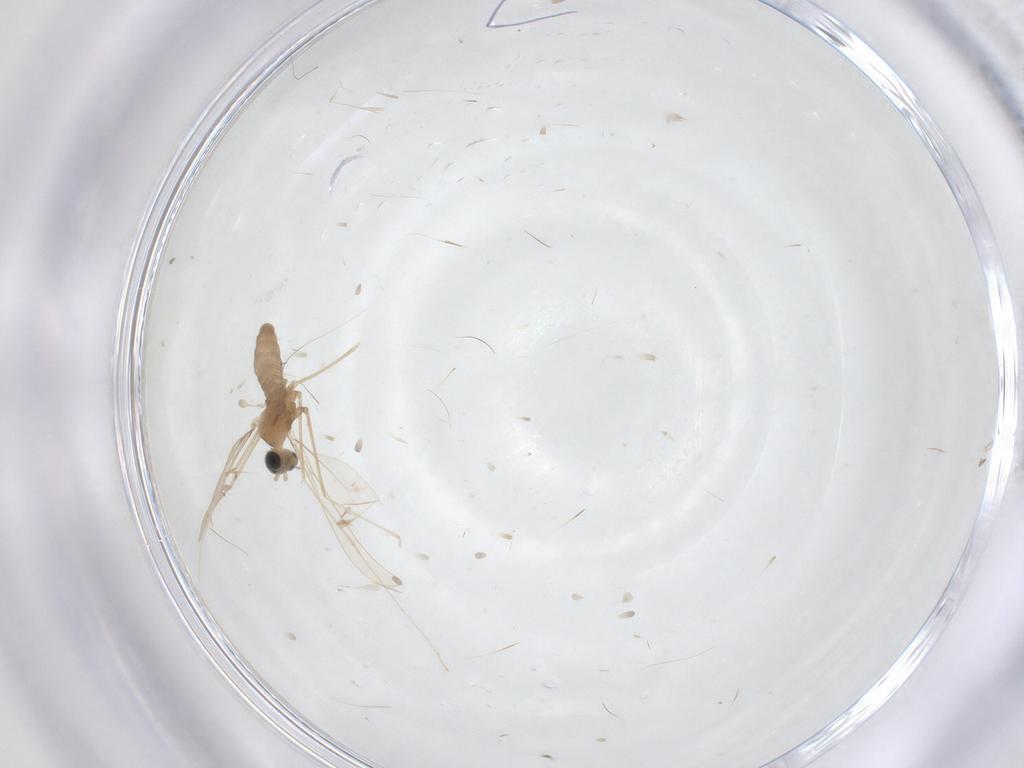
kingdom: Animalia
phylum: Arthropoda
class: Insecta
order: Diptera
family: Cecidomyiidae
